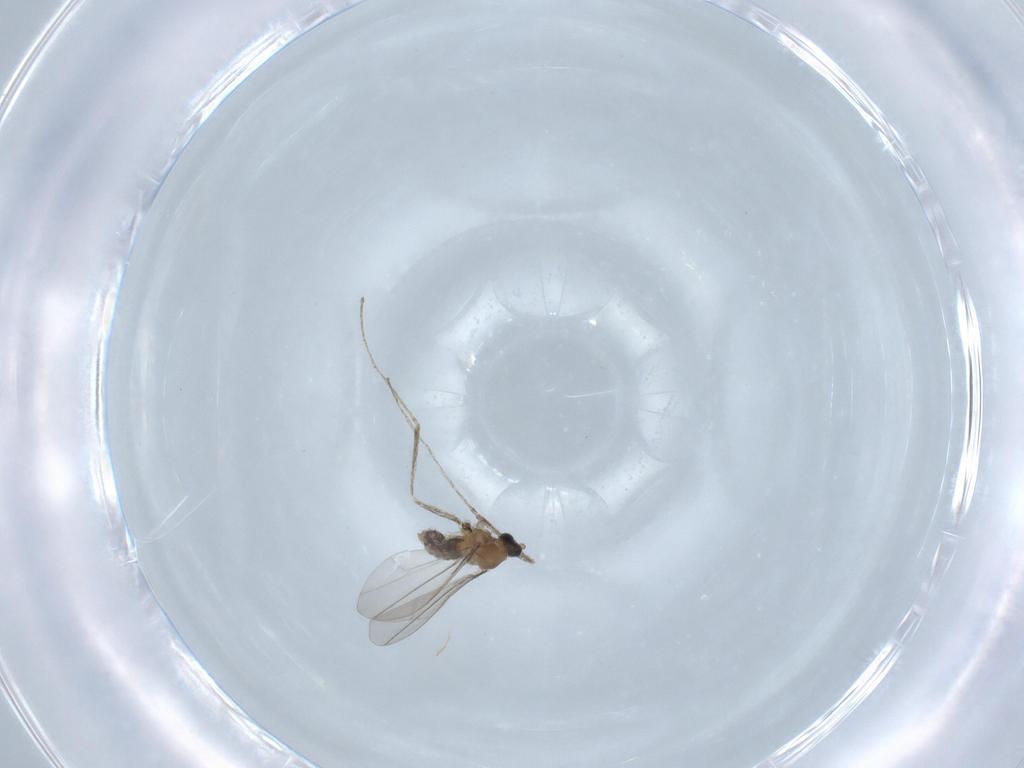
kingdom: Animalia
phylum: Arthropoda
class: Insecta
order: Diptera
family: Cecidomyiidae
